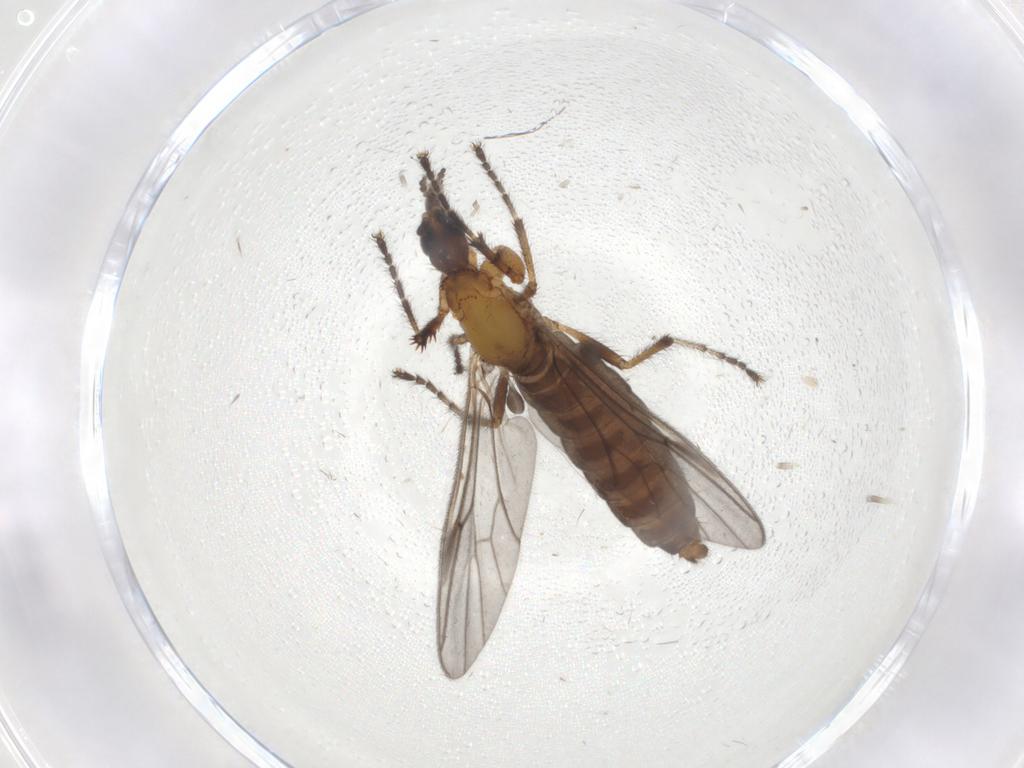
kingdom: Animalia
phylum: Arthropoda
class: Insecta
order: Diptera
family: Bibionidae
